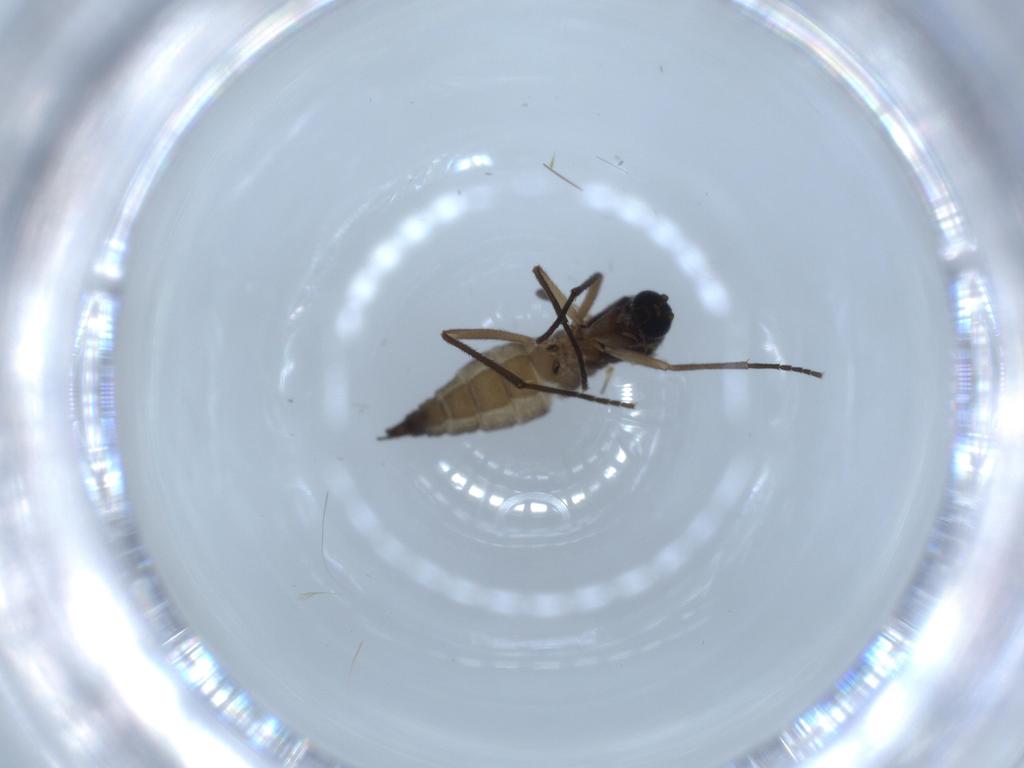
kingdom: Animalia
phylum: Arthropoda
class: Insecta
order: Diptera
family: Sciaridae
